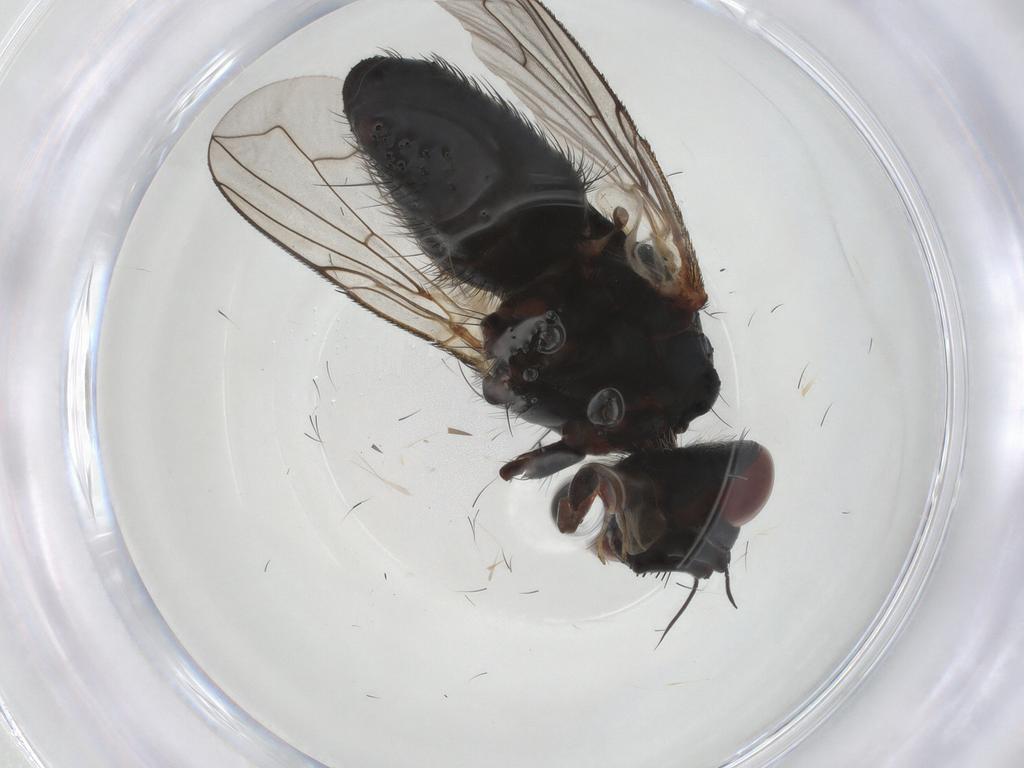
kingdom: Animalia
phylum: Arthropoda
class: Insecta
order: Diptera
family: Tachinidae
